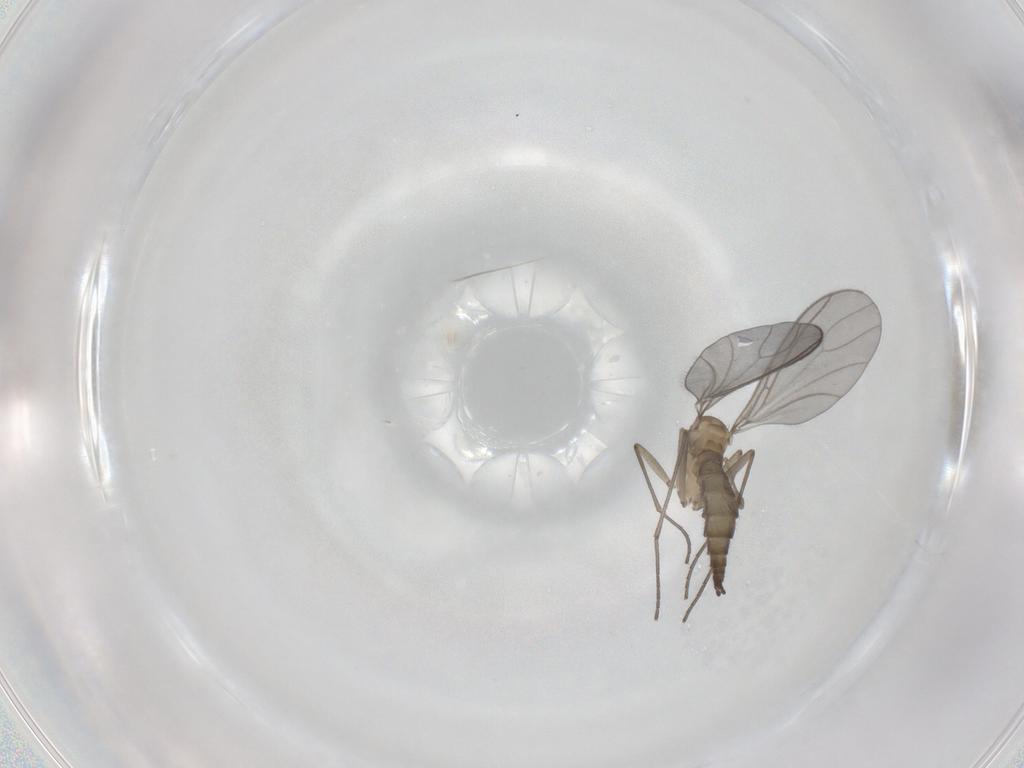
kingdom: Animalia
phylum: Arthropoda
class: Insecta
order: Diptera
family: Sciaridae
